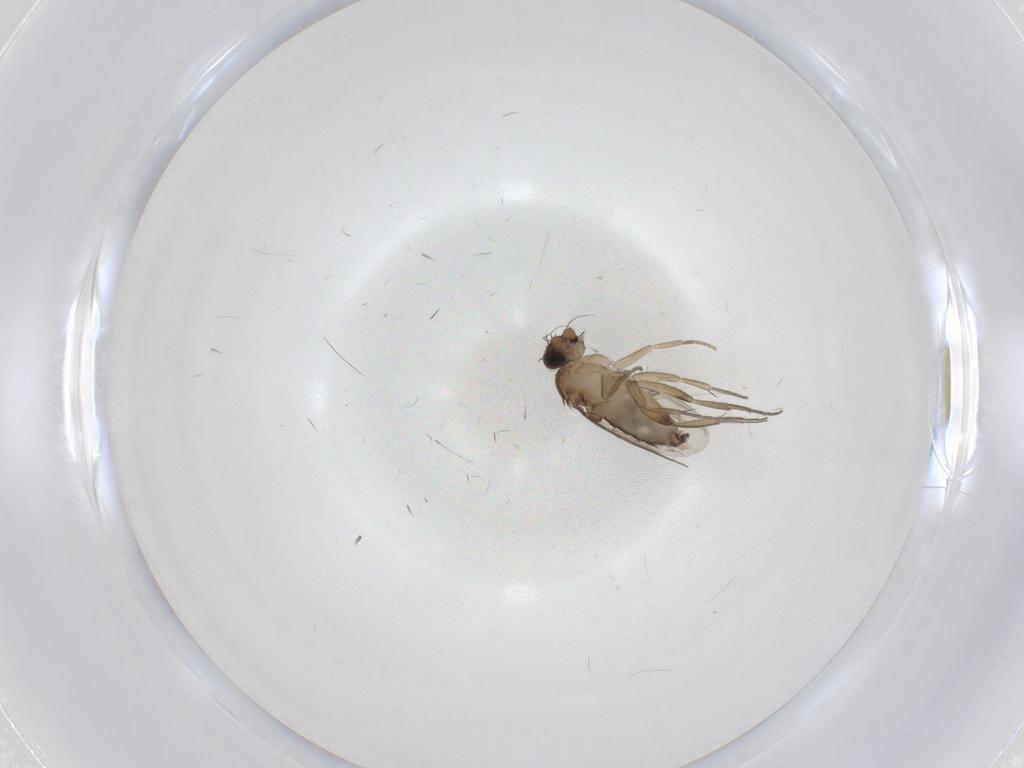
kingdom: Animalia
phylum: Arthropoda
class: Insecta
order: Diptera
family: Phoridae
